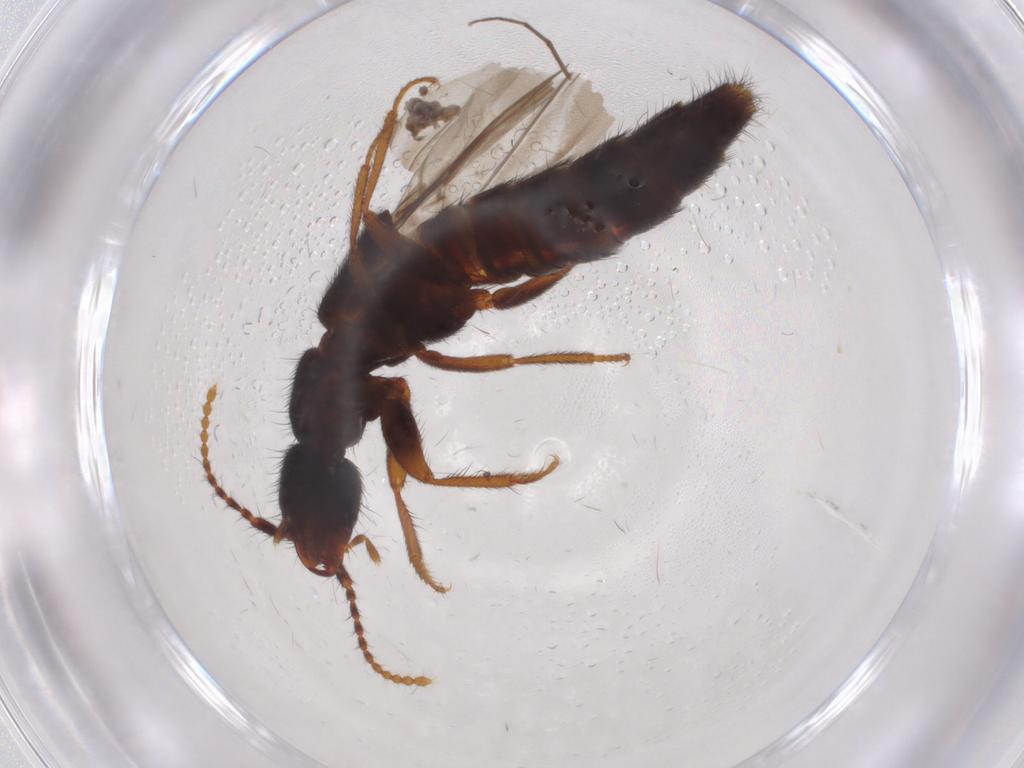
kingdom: Animalia
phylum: Arthropoda
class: Insecta
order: Coleoptera
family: Staphylinidae
